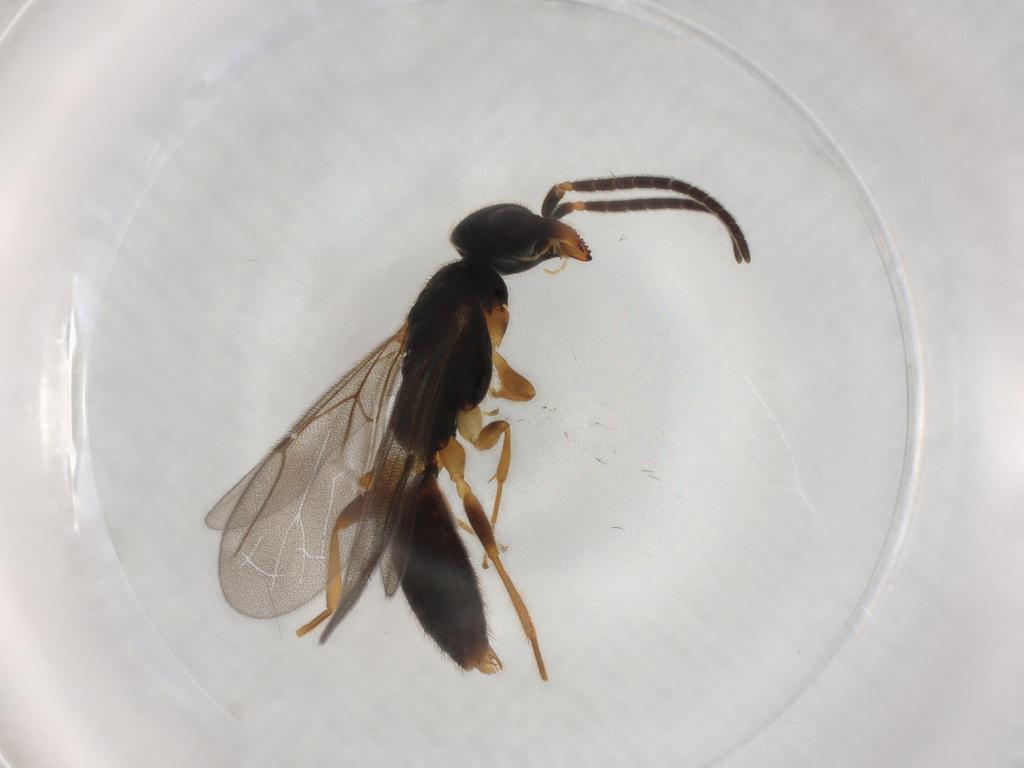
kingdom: Animalia
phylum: Arthropoda
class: Insecta
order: Hymenoptera
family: Bethylidae
